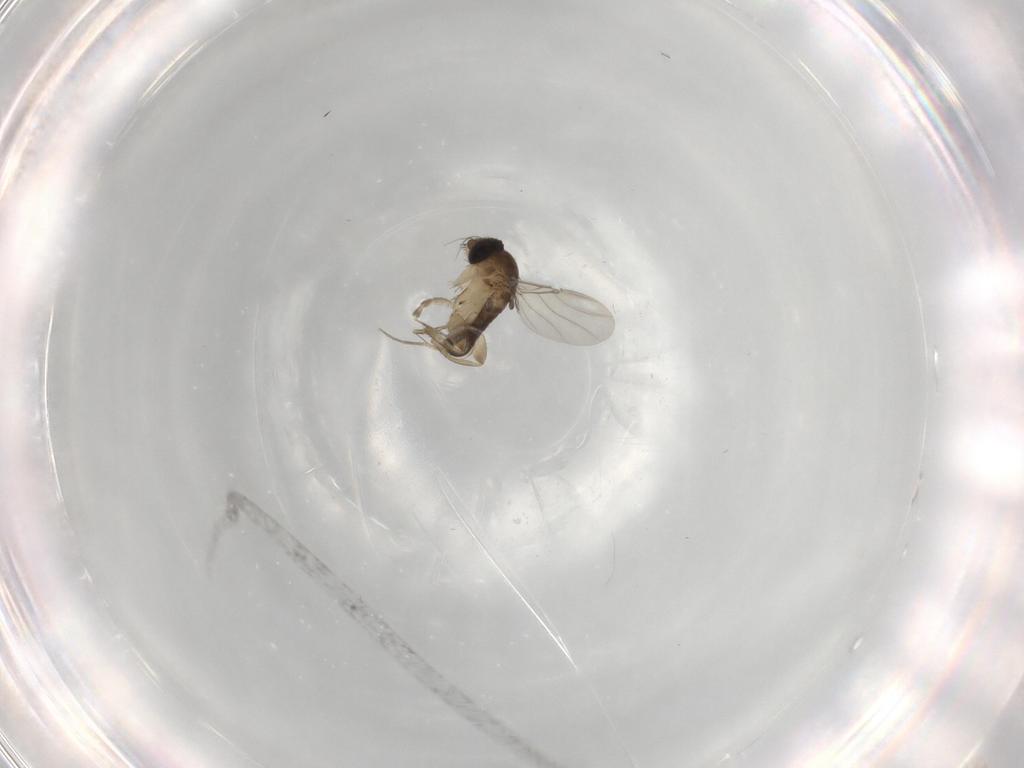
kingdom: Animalia
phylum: Arthropoda
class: Insecta
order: Diptera
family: Phoridae
